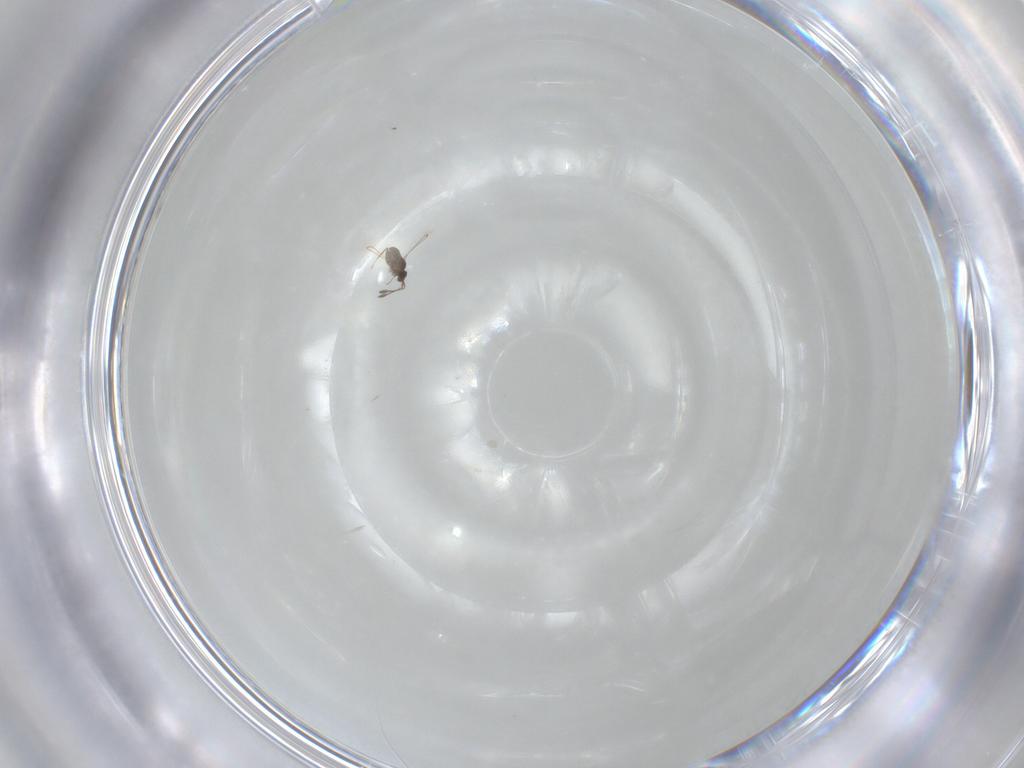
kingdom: Animalia
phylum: Arthropoda
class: Insecta
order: Hymenoptera
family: Mymaridae
